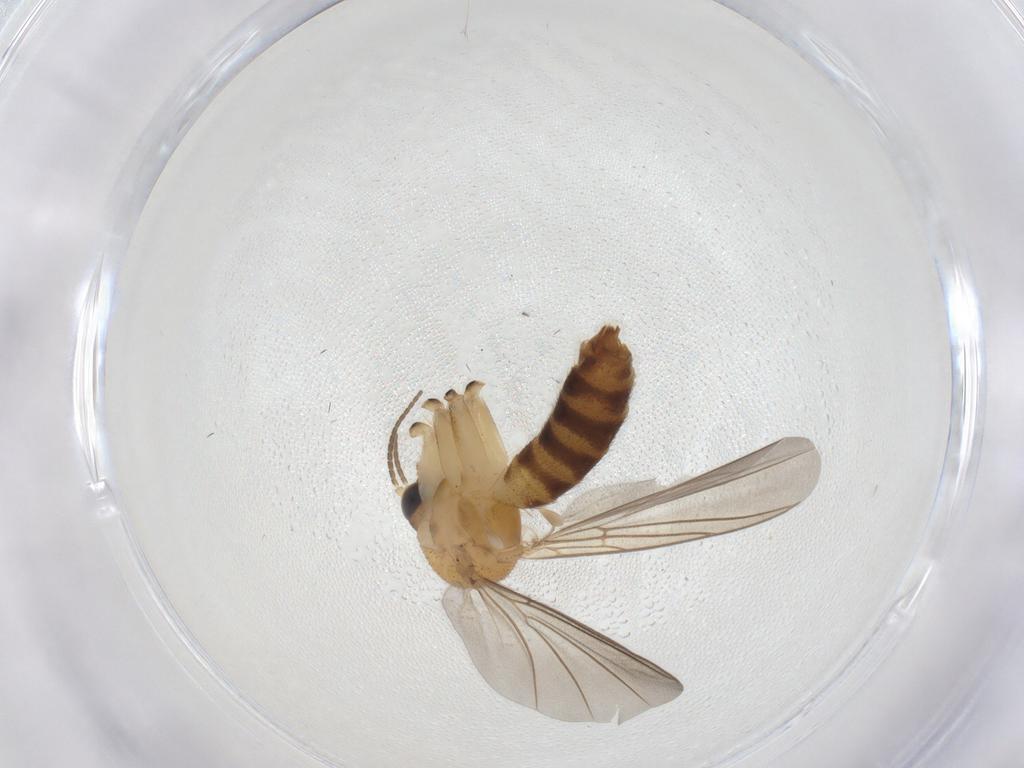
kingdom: Animalia
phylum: Arthropoda
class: Insecta
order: Diptera
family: Mycetophilidae
